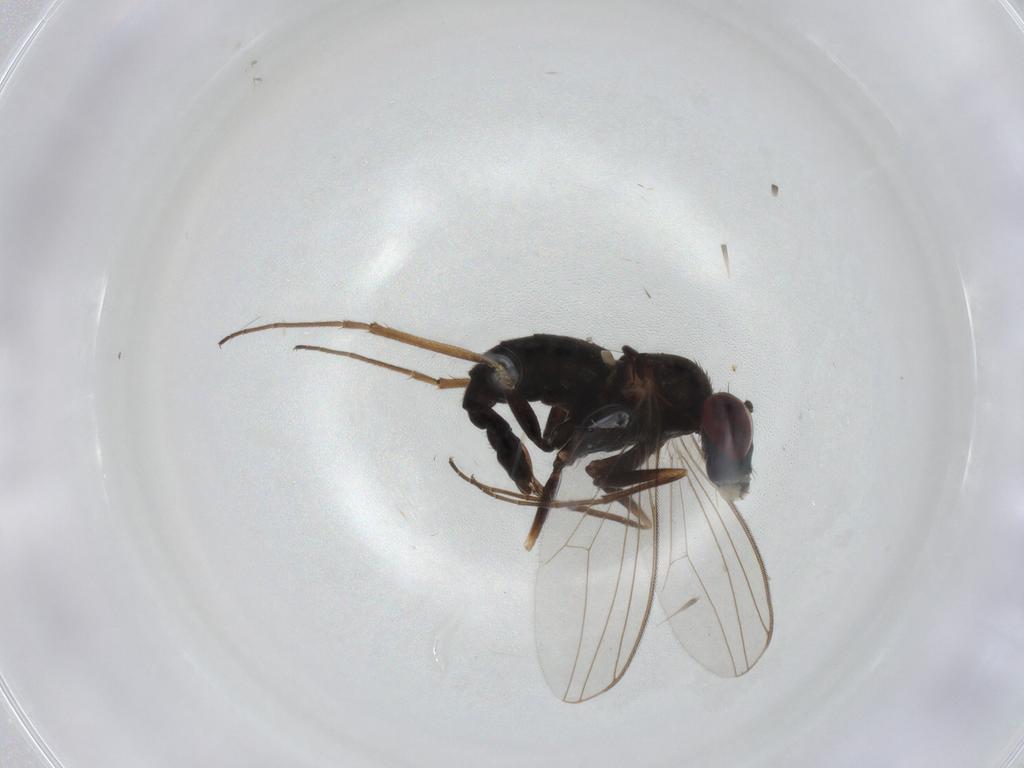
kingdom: Animalia
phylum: Arthropoda
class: Insecta
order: Diptera
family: Dolichopodidae
